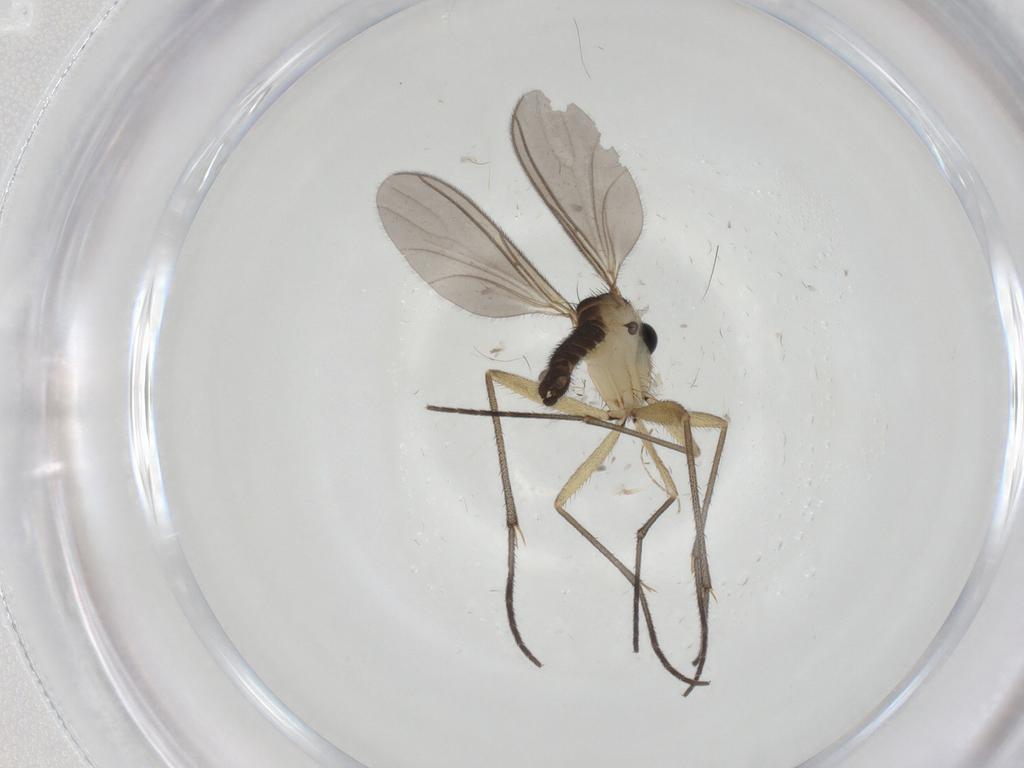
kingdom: Animalia
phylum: Arthropoda
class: Insecta
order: Diptera
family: Sciaridae
